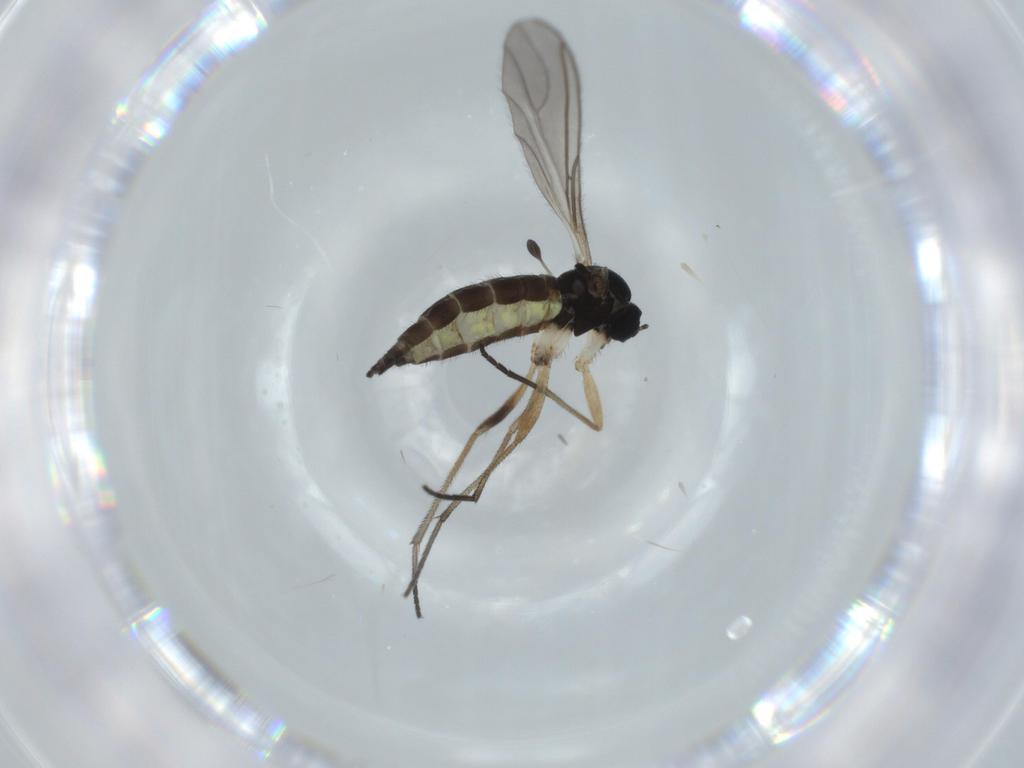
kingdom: Animalia
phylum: Arthropoda
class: Insecta
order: Diptera
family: Sciaridae
